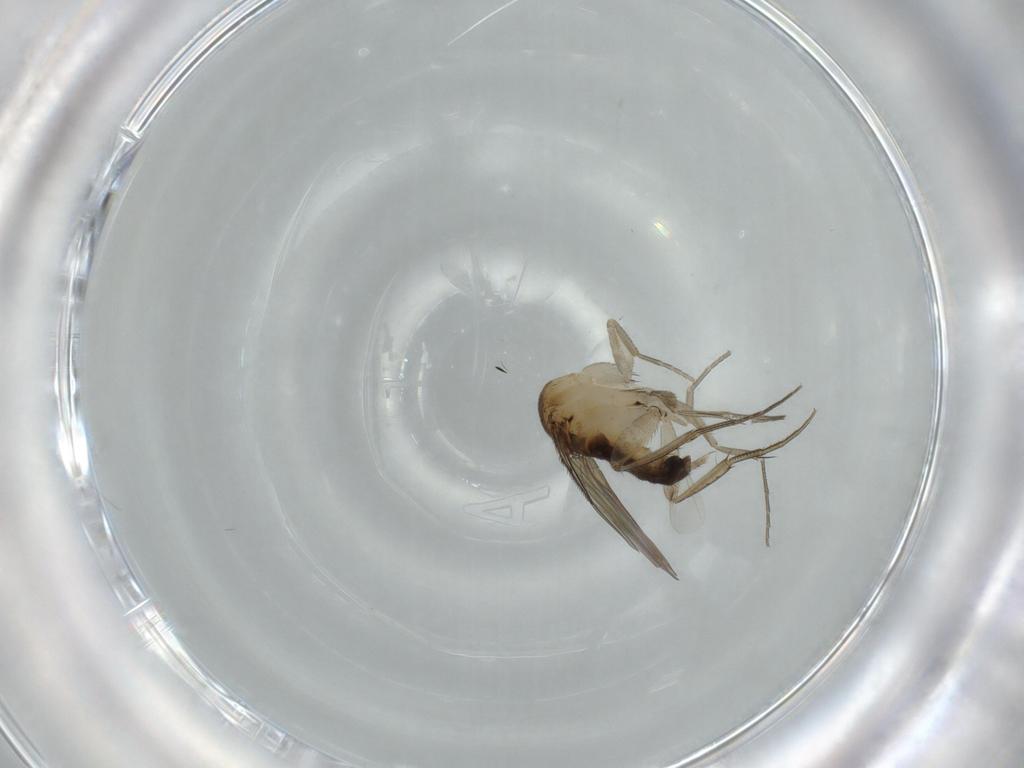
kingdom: Animalia
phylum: Arthropoda
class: Insecta
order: Diptera
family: Phoridae
